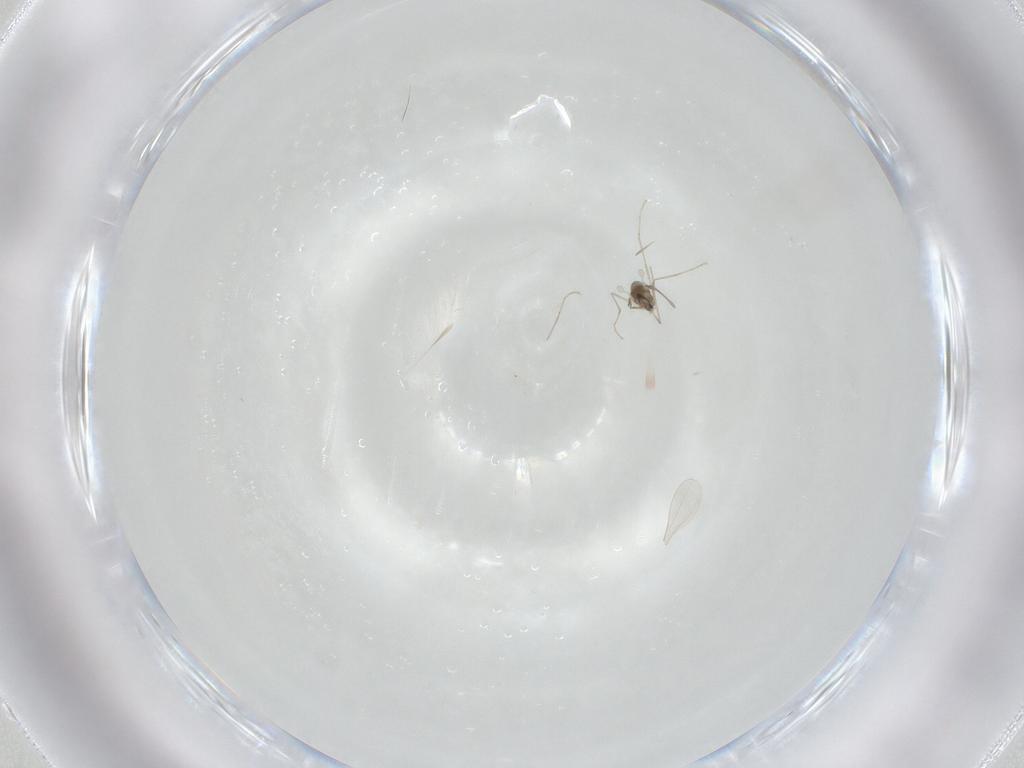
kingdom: Animalia
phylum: Arthropoda
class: Insecta
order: Diptera
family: Cecidomyiidae
